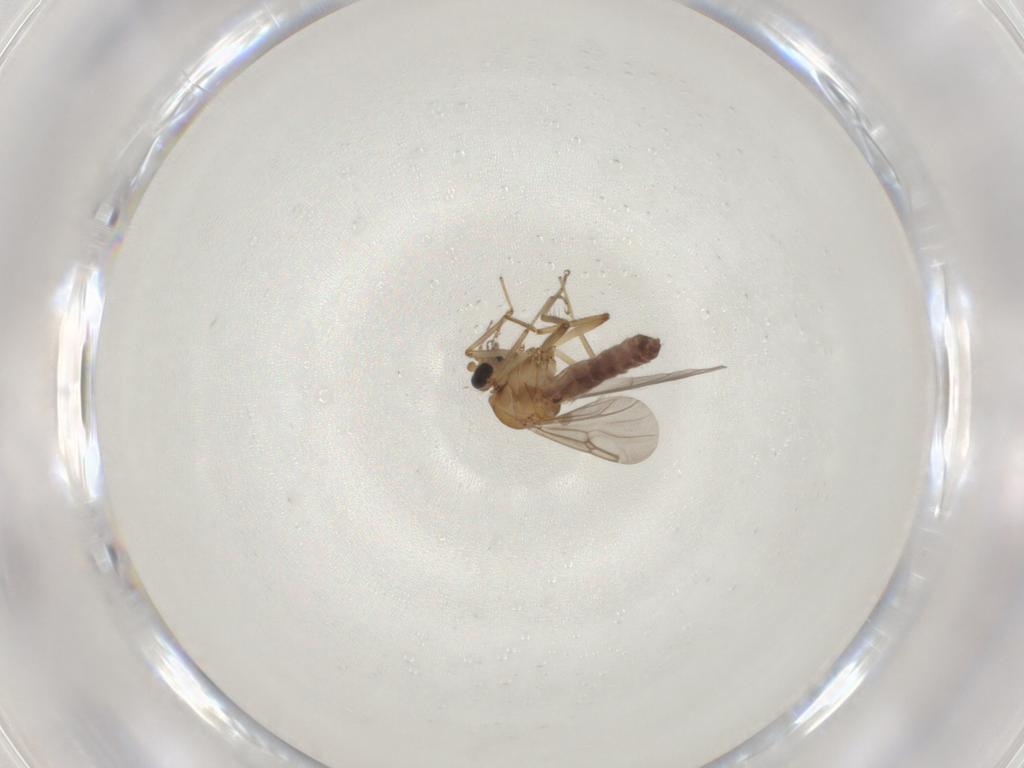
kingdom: Animalia
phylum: Arthropoda
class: Insecta
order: Diptera
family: Ceratopogonidae
